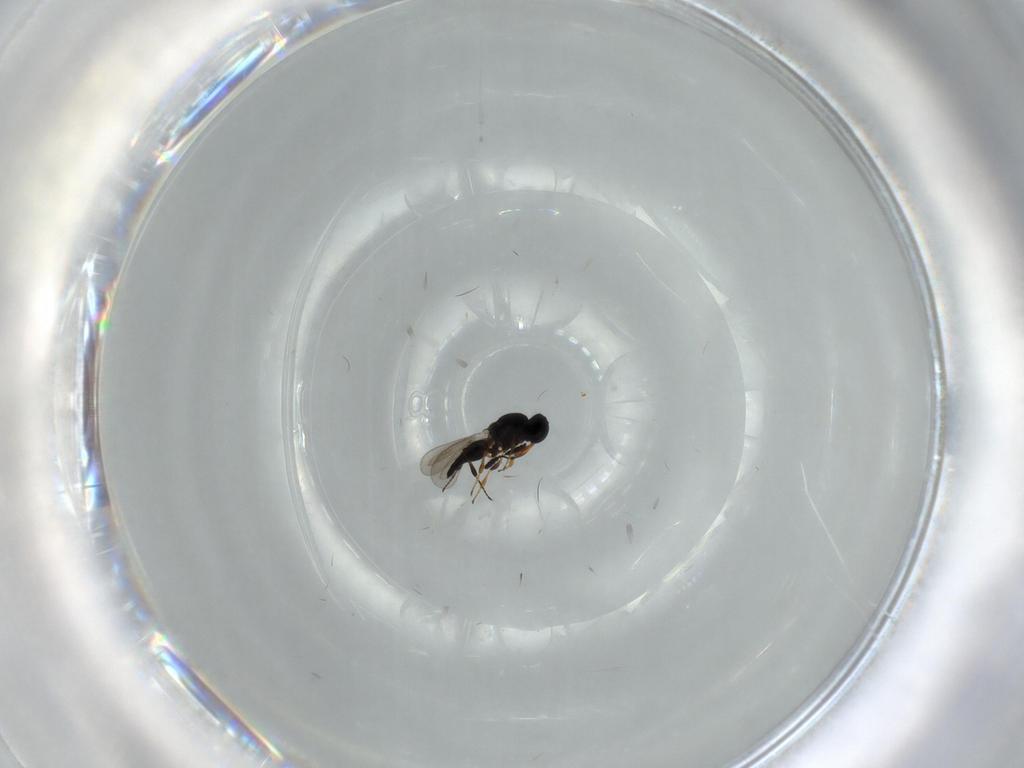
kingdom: Animalia
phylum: Arthropoda
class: Insecta
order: Hymenoptera
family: Platygastridae
